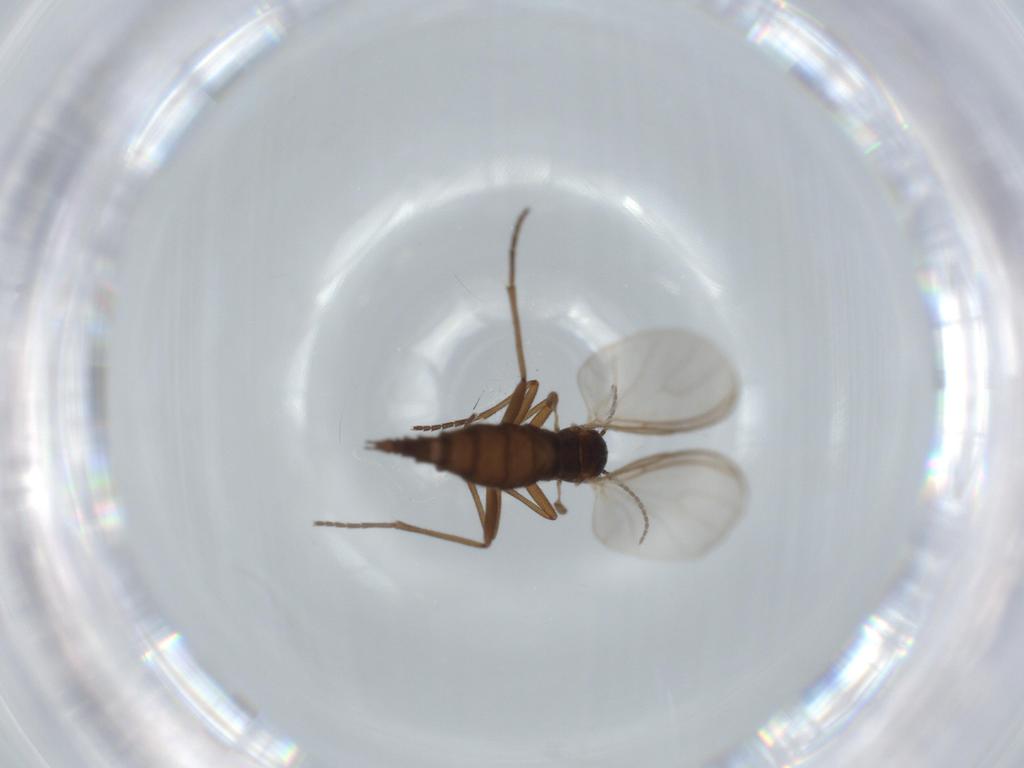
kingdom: Animalia
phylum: Arthropoda
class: Insecta
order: Diptera
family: Sciaridae
